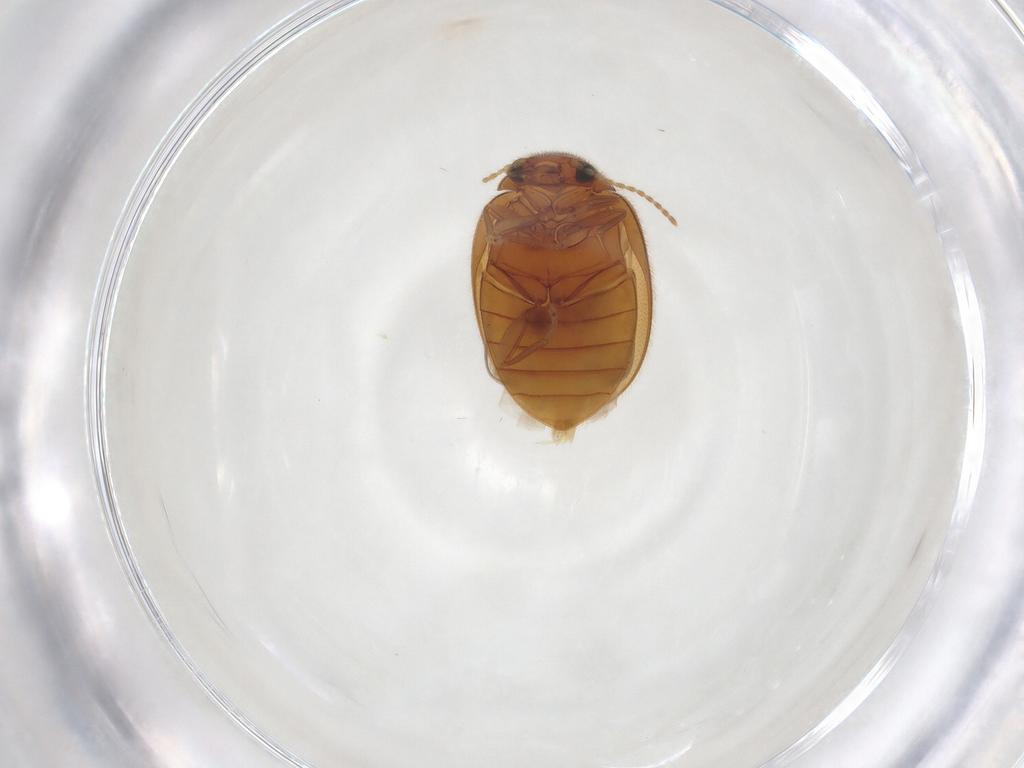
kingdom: Animalia
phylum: Arthropoda
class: Insecta
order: Coleoptera
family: Scirtidae
